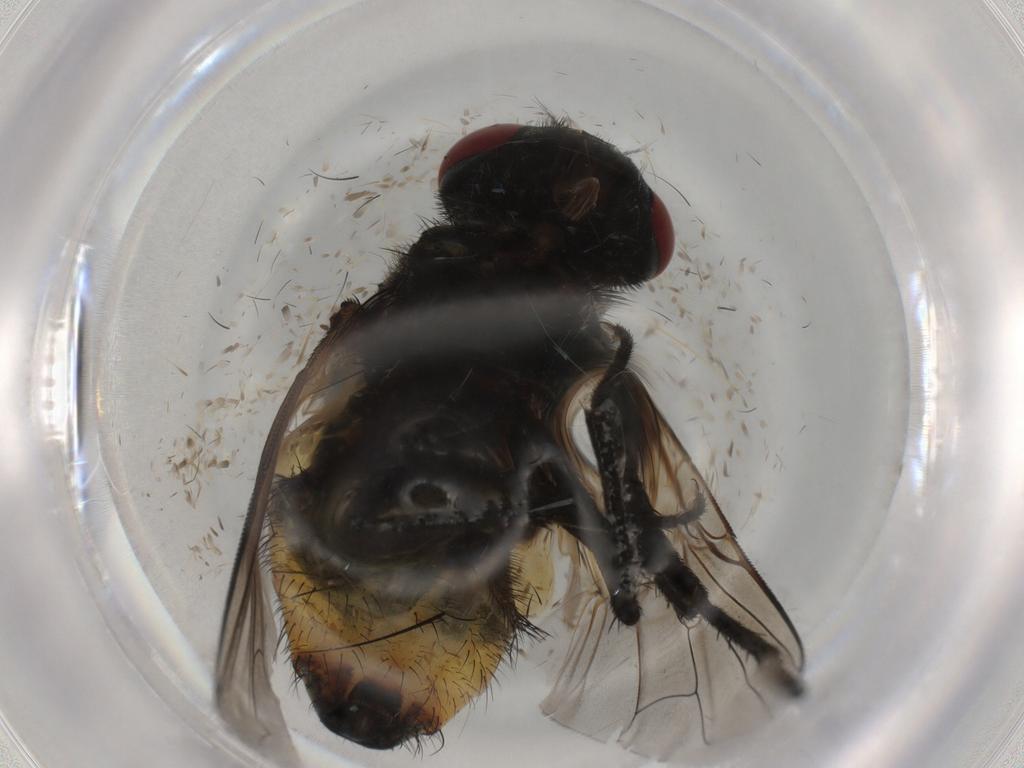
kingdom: Animalia
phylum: Arthropoda
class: Insecta
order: Diptera
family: Muscidae
